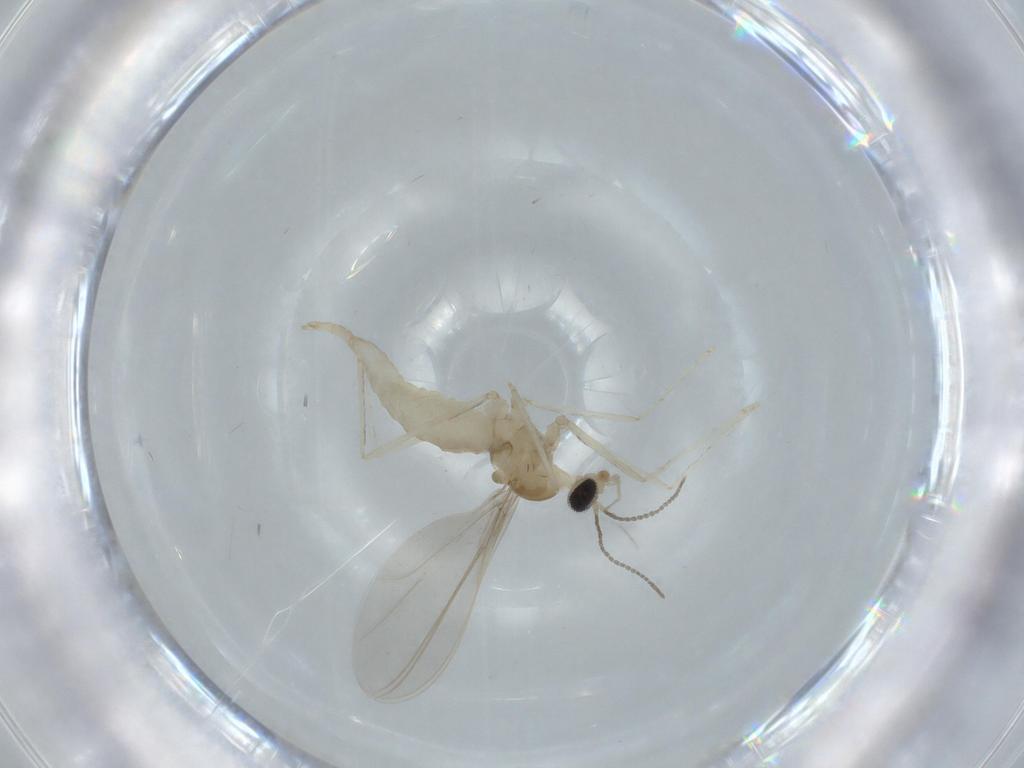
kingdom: Animalia
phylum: Arthropoda
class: Insecta
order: Diptera
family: Cecidomyiidae
